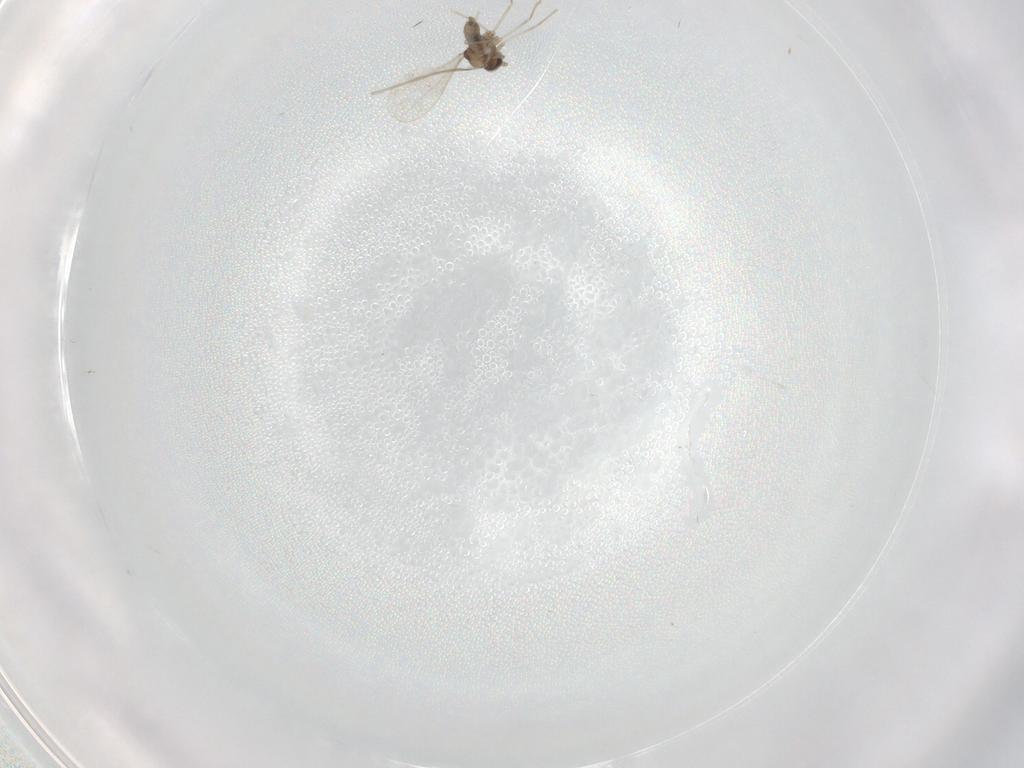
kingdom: Animalia
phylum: Arthropoda
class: Insecta
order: Diptera
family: Cecidomyiidae
